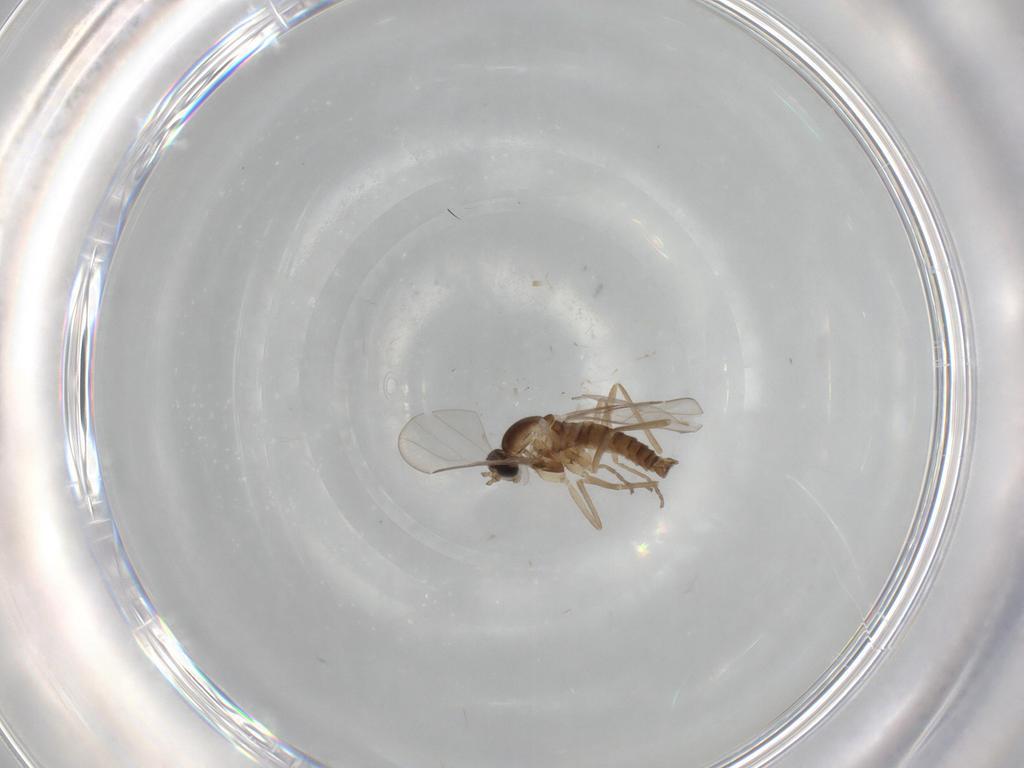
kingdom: Animalia
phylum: Arthropoda
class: Insecta
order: Diptera
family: Cecidomyiidae
